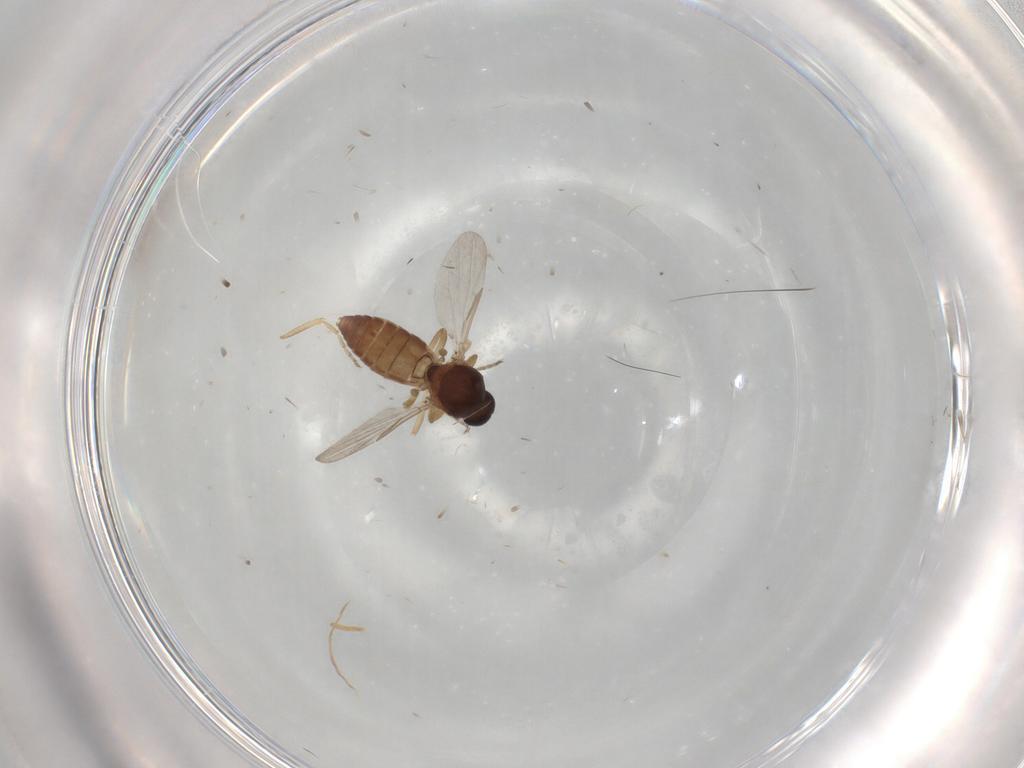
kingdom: Animalia
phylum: Arthropoda
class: Insecta
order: Diptera
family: Ceratopogonidae
